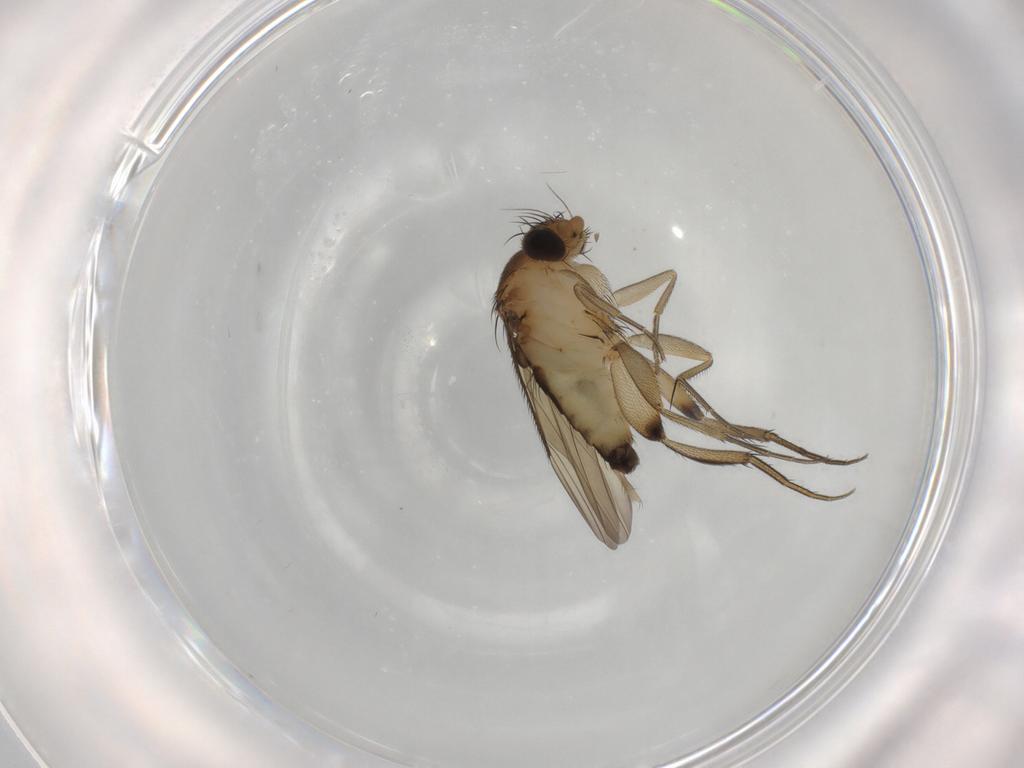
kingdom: Animalia
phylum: Arthropoda
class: Insecta
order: Diptera
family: Phoridae
